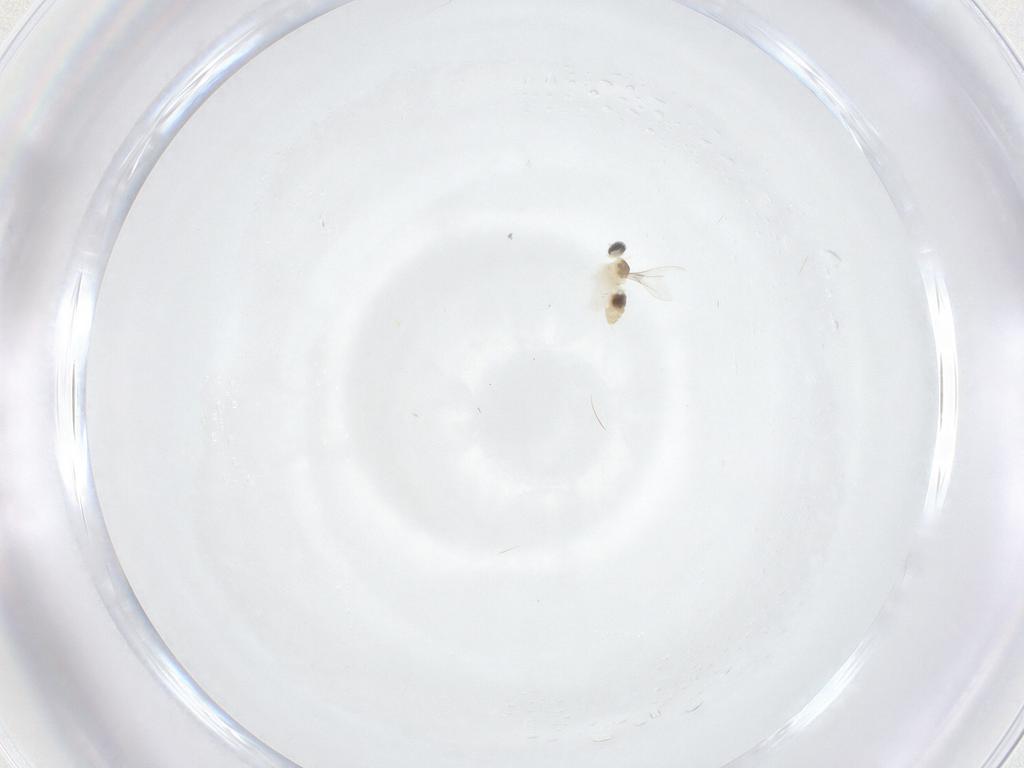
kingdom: Animalia
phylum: Arthropoda
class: Insecta
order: Diptera
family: Cecidomyiidae
